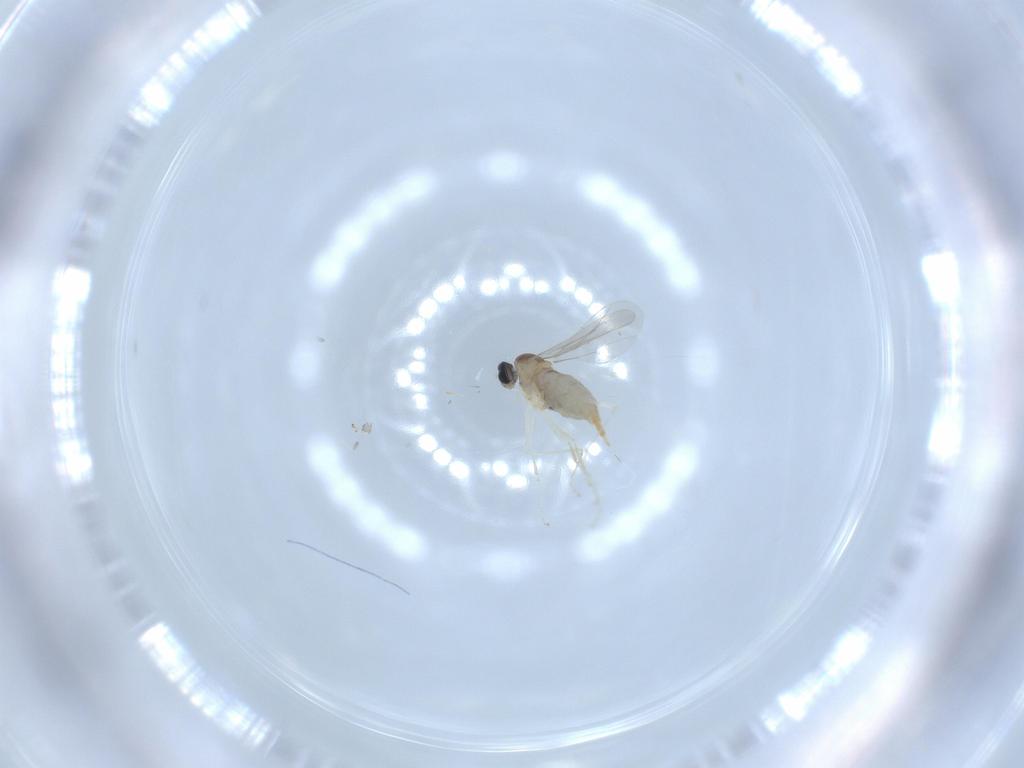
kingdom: Animalia
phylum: Arthropoda
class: Insecta
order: Diptera
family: Cecidomyiidae
